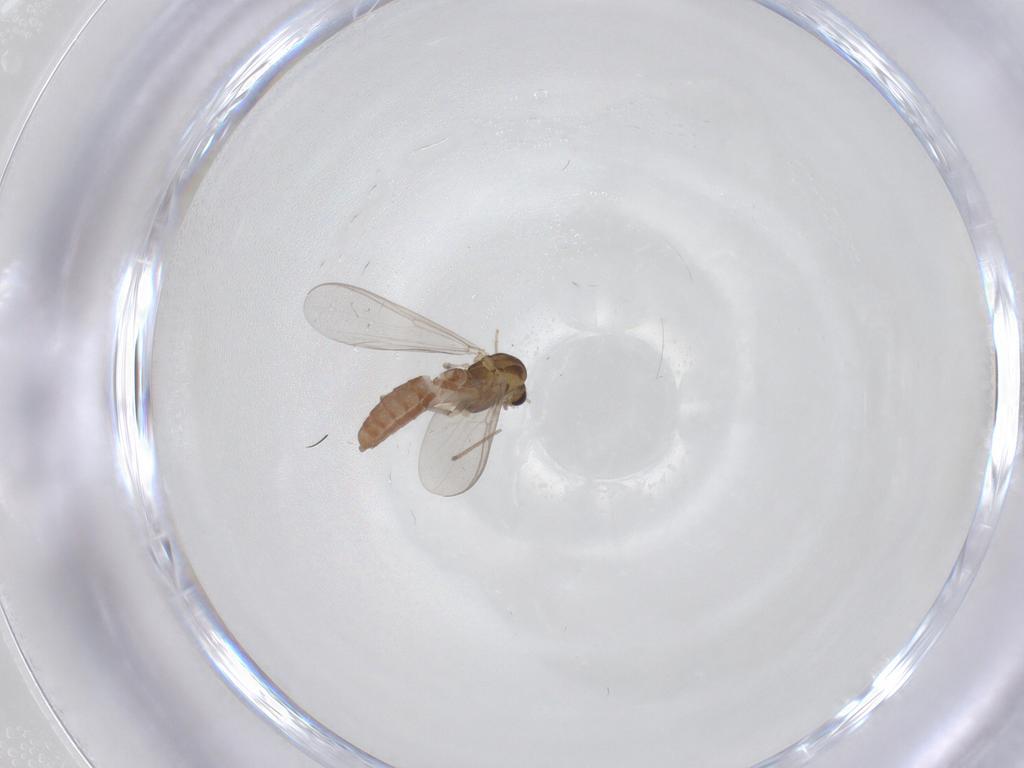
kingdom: Animalia
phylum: Arthropoda
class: Insecta
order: Diptera
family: Chironomidae
